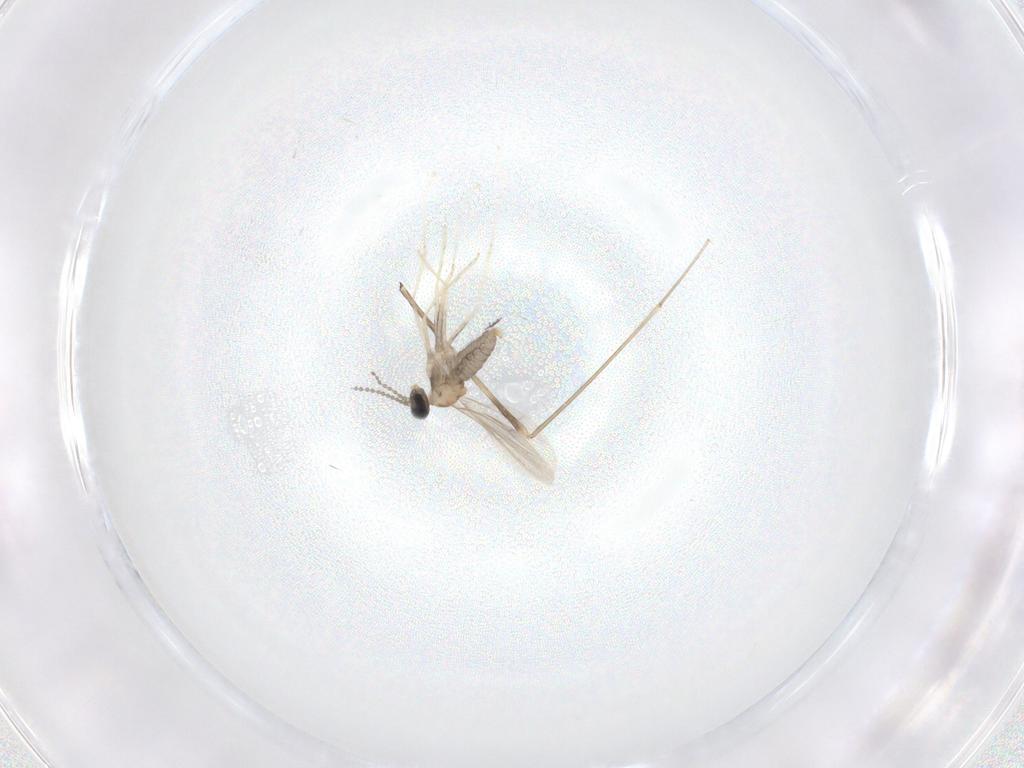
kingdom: Animalia
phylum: Arthropoda
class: Insecta
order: Diptera
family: Cecidomyiidae
